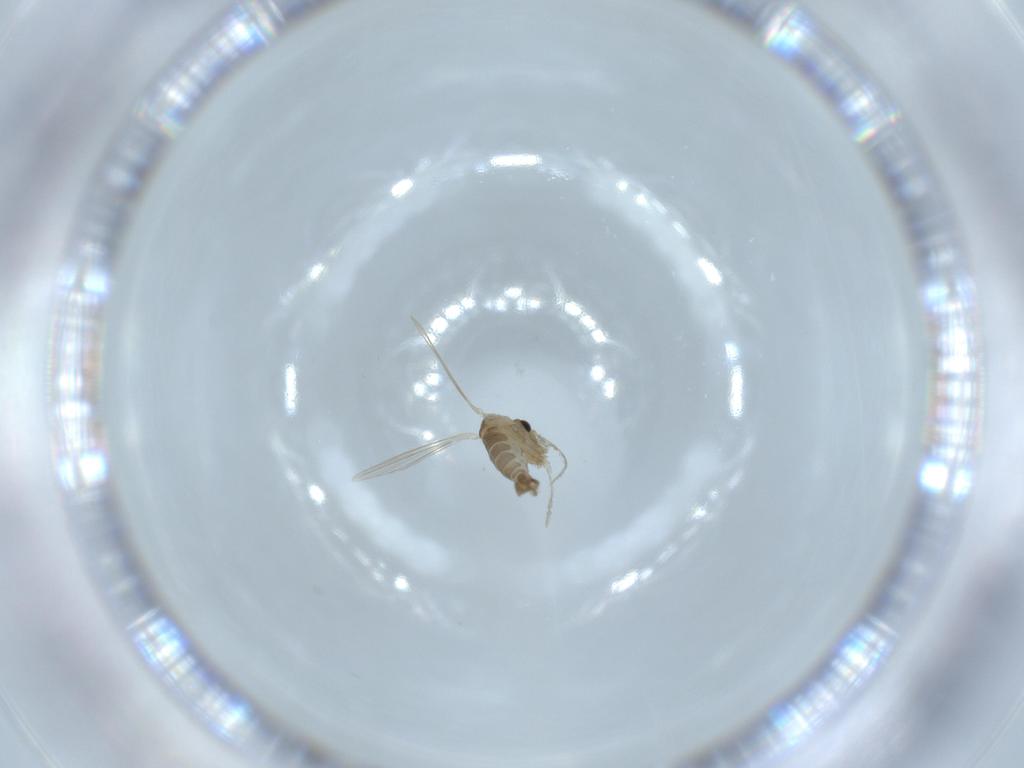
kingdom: Animalia
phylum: Arthropoda
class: Insecta
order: Diptera
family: Psychodidae
